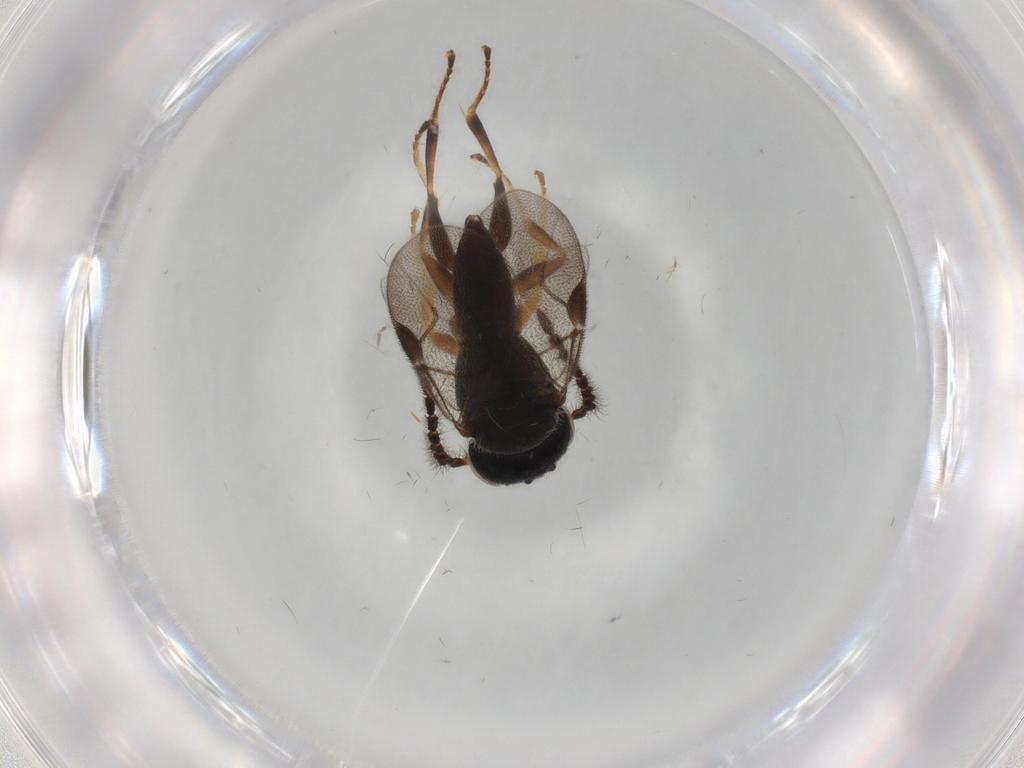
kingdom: Animalia
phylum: Arthropoda
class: Insecta
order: Hymenoptera
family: Dryinidae
